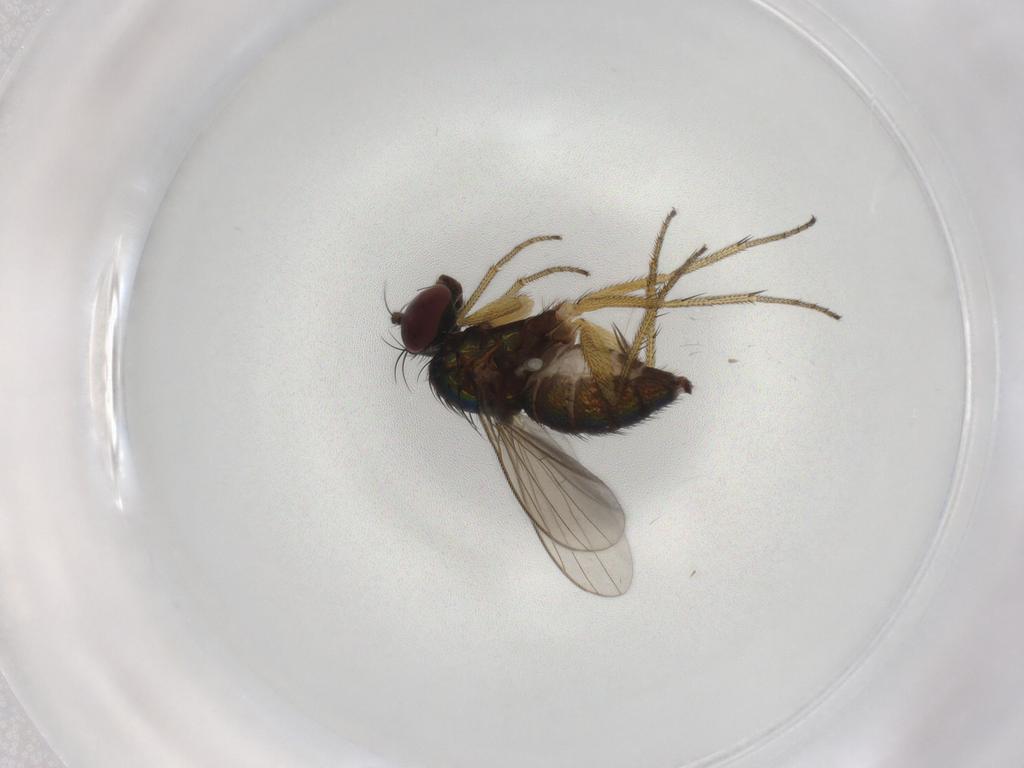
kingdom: Animalia
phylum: Arthropoda
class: Insecta
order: Diptera
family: Psychodidae
